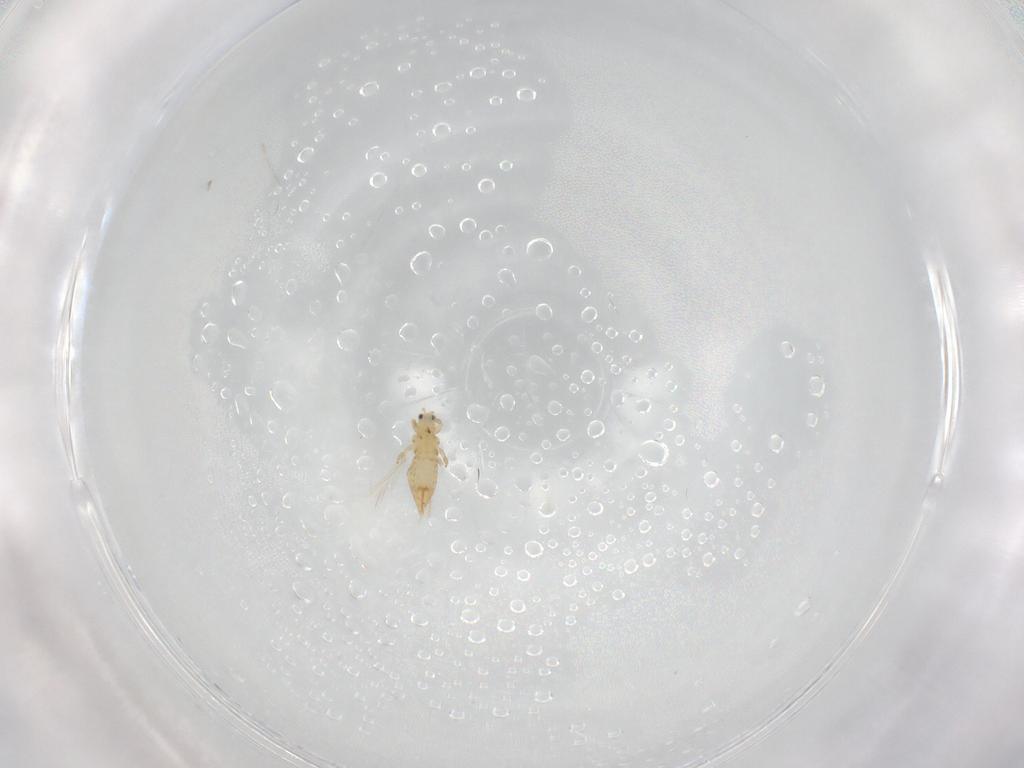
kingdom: Animalia
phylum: Arthropoda
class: Insecta
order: Thysanoptera
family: Thripidae
